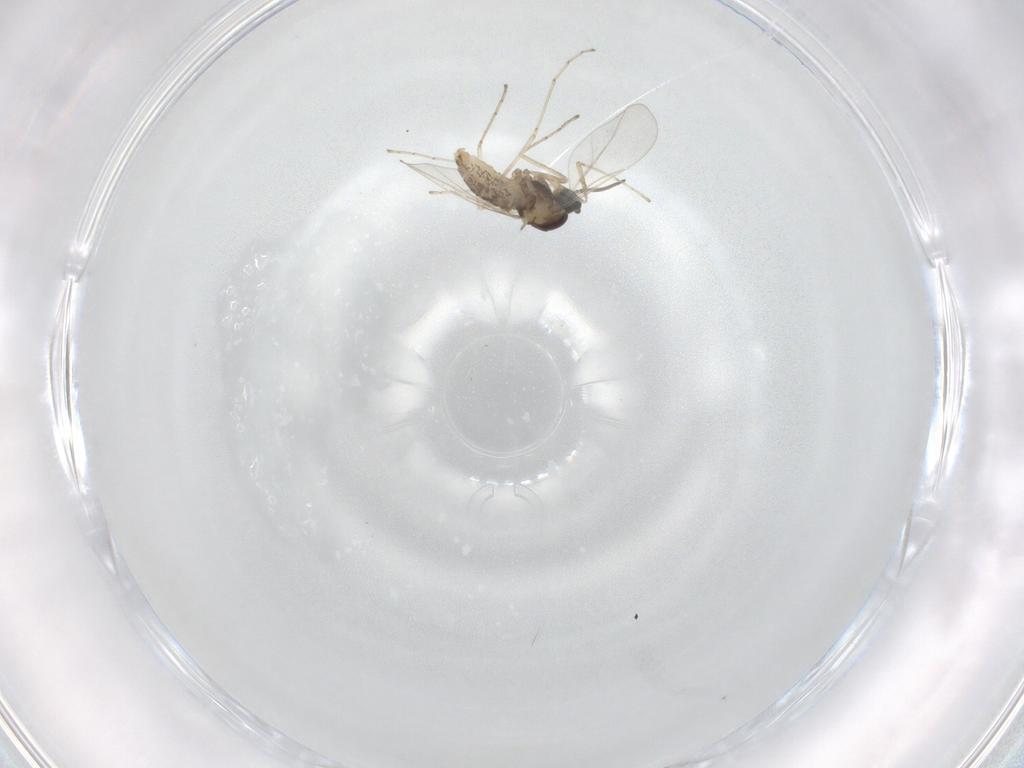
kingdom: Animalia
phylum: Arthropoda
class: Insecta
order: Diptera
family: Cecidomyiidae
